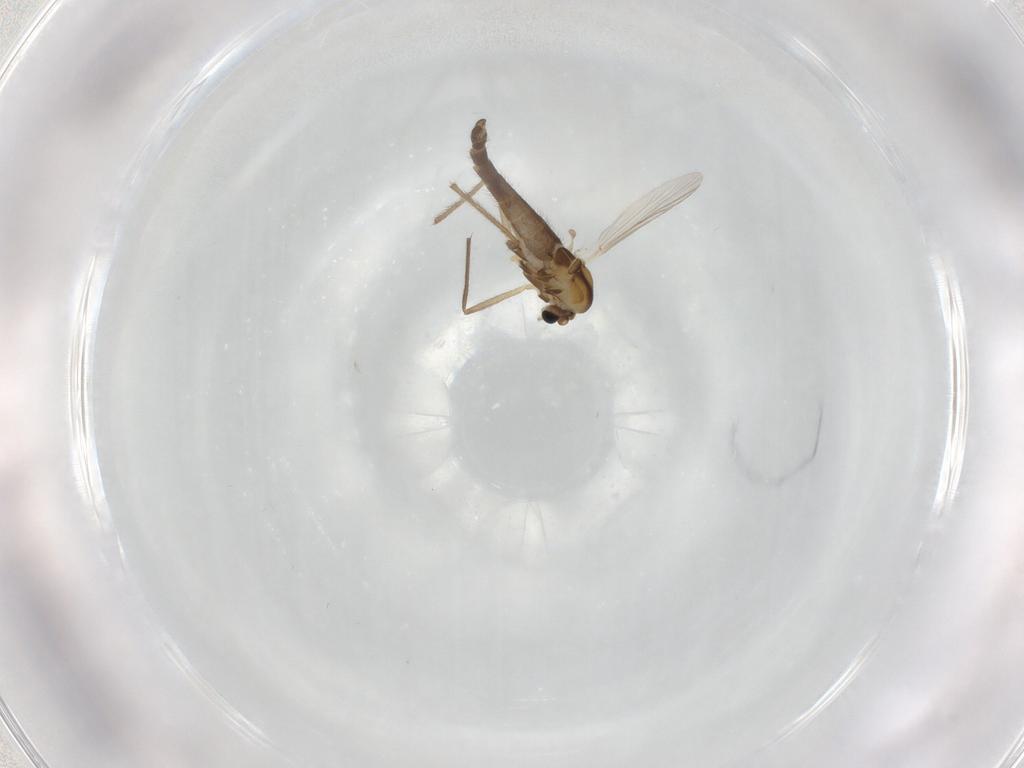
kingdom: Animalia
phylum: Arthropoda
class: Insecta
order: Diptera
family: Chironomidae
